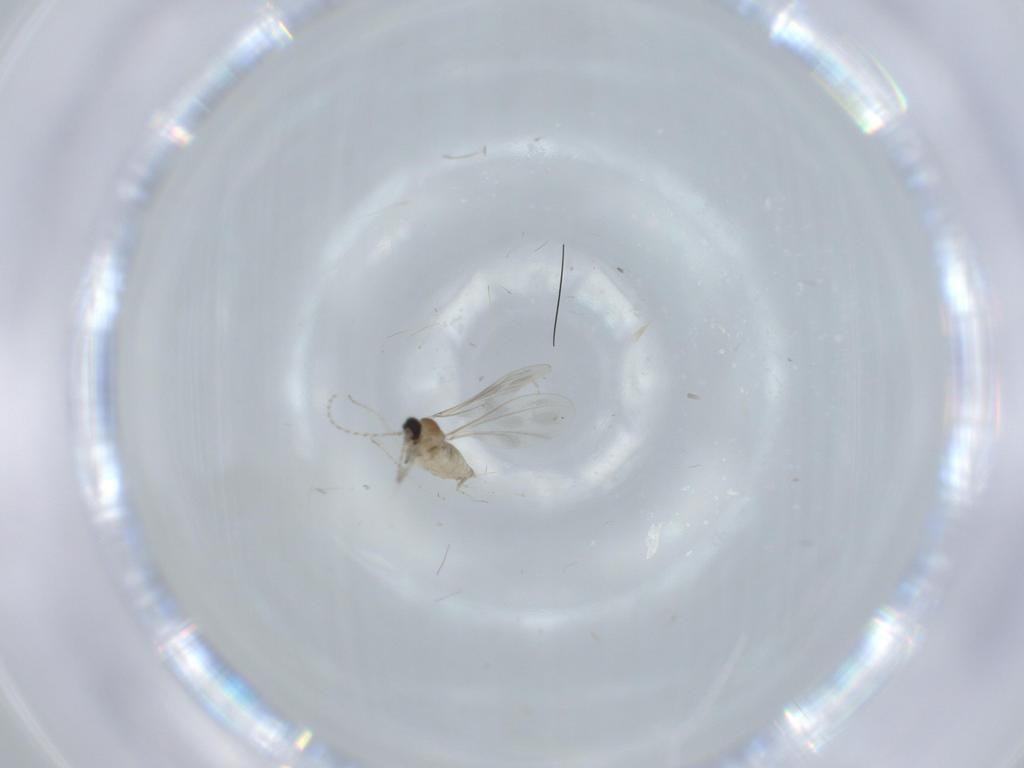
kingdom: Animalia
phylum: Arthropoda
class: Insecta
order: Diptera
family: Cecidomyiidae
